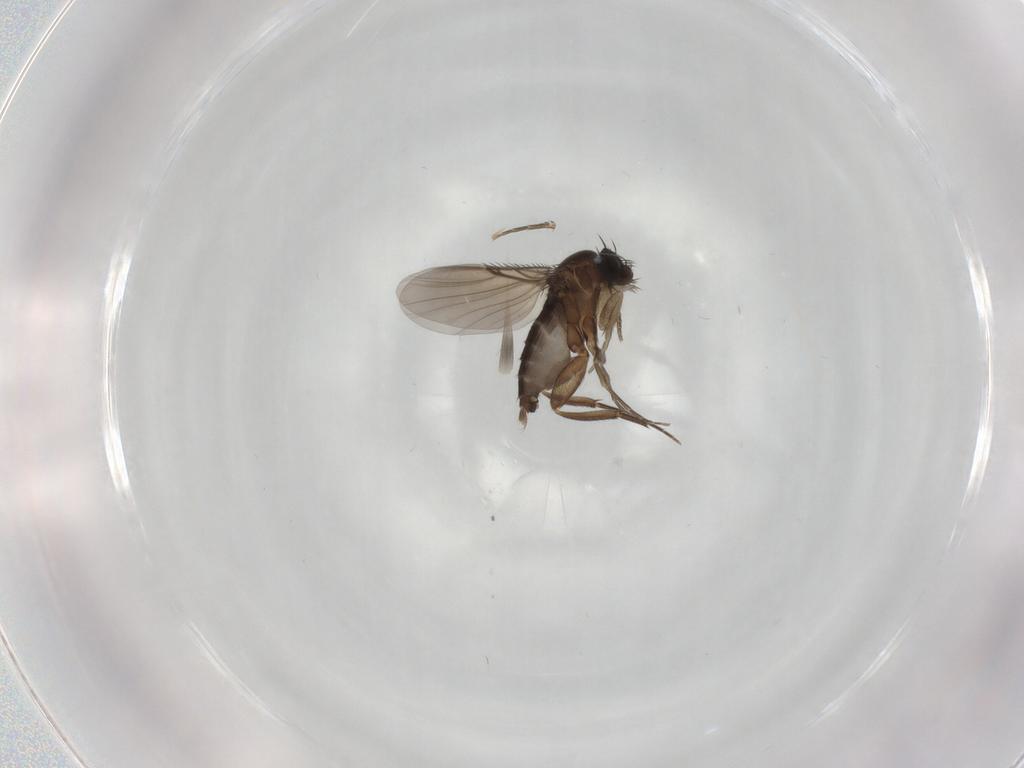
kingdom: Animalia
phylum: Arthropoda
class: Insecta
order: Diptera
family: Phoridae
